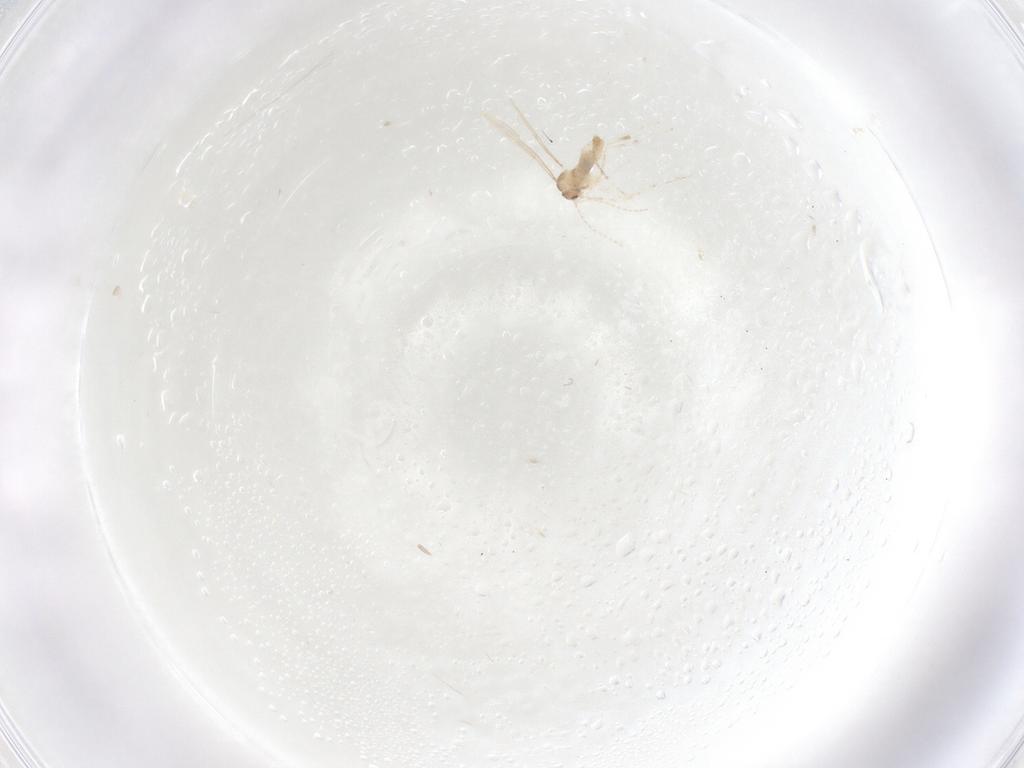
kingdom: Animalia
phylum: Arthropoda
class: Insecta
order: Diptera
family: Cecidomyiidae
